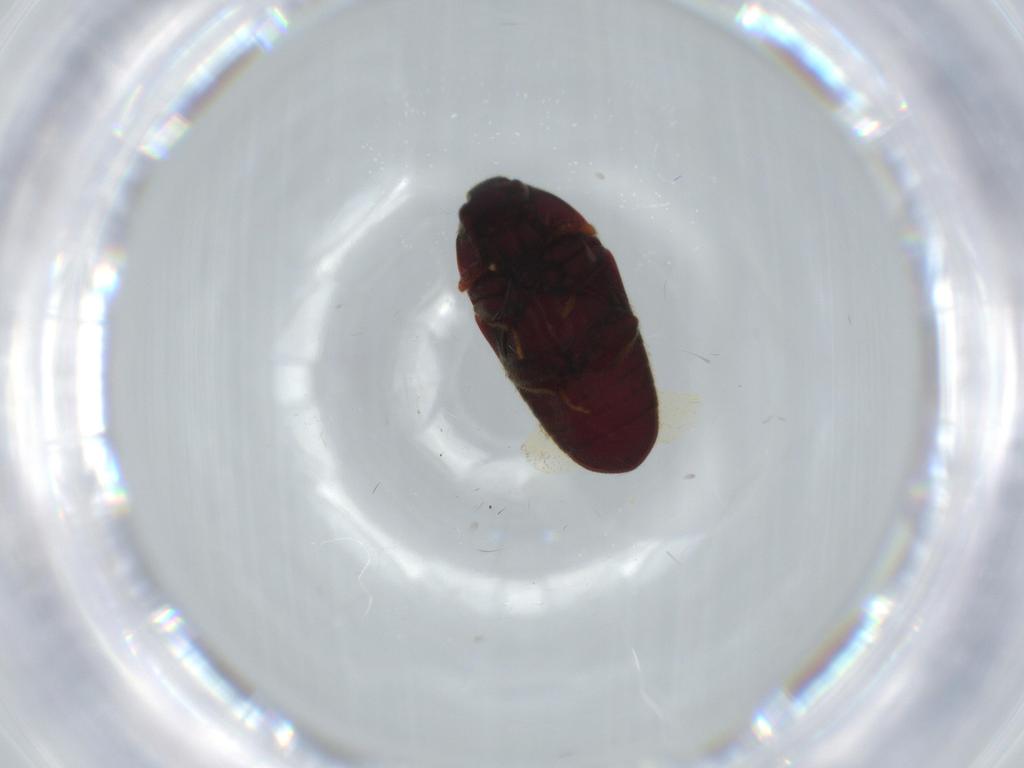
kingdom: Animalia
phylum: Arthropoda
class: Insecta
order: Coleoptera
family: Throscidae
